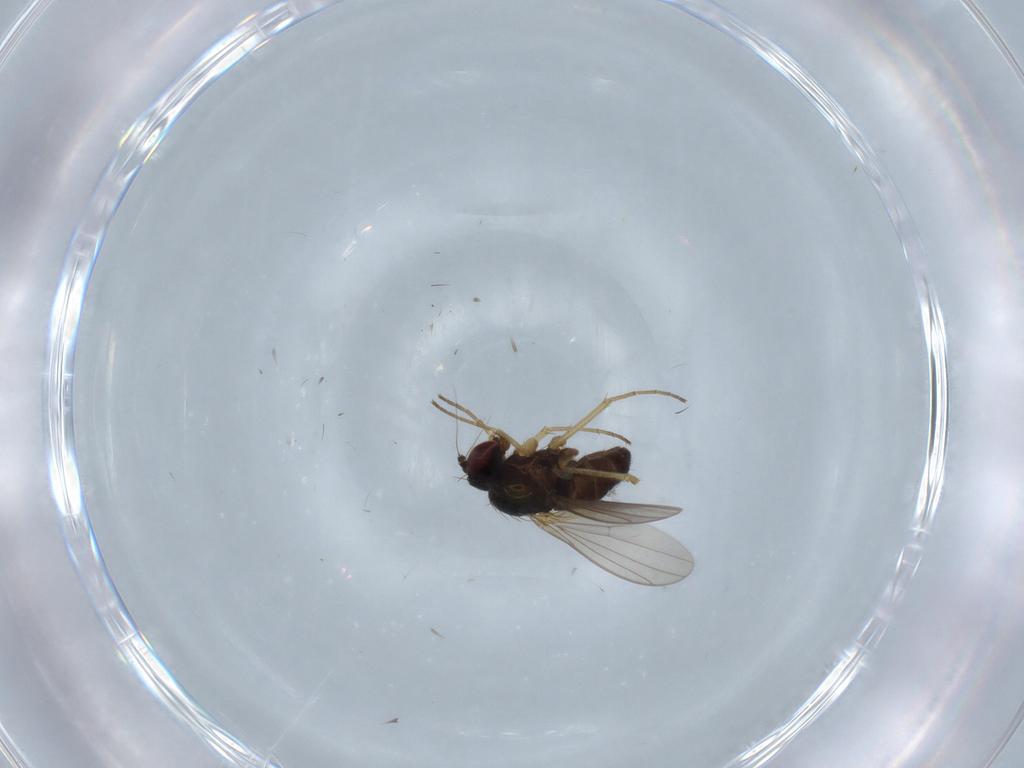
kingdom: Animalia
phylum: Arthropoda
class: Insecta
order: Diptera
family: Dolichopodidae
